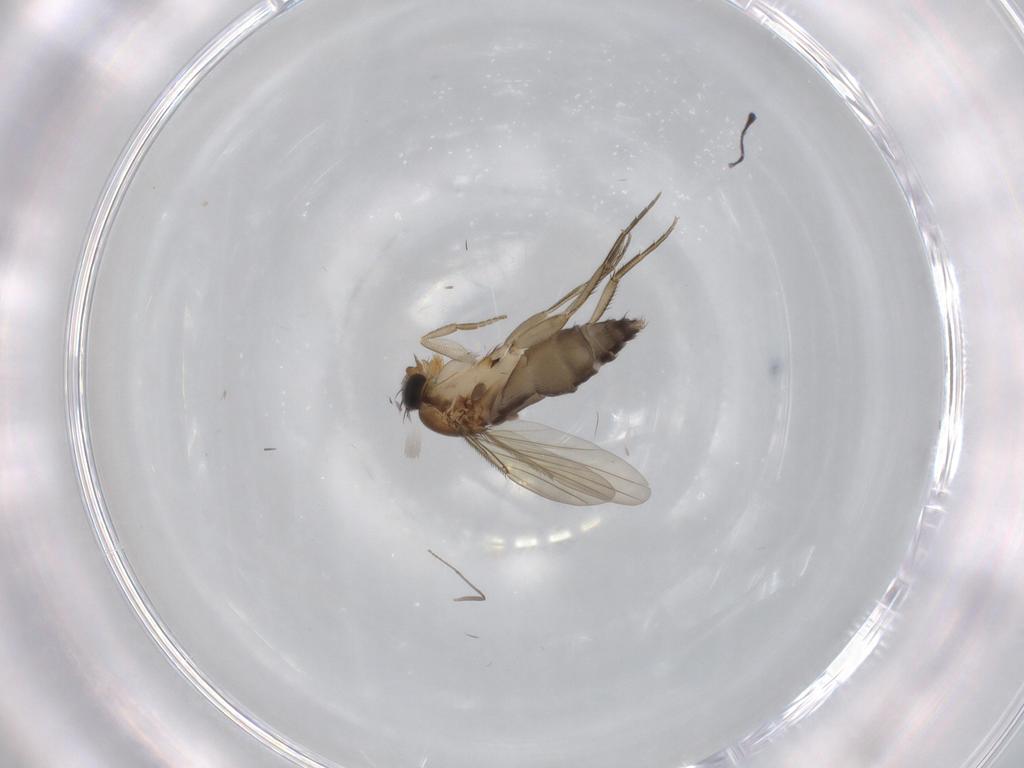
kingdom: Animalia
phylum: Arthropoda
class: Insecta
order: Diptera
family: Phoridae
